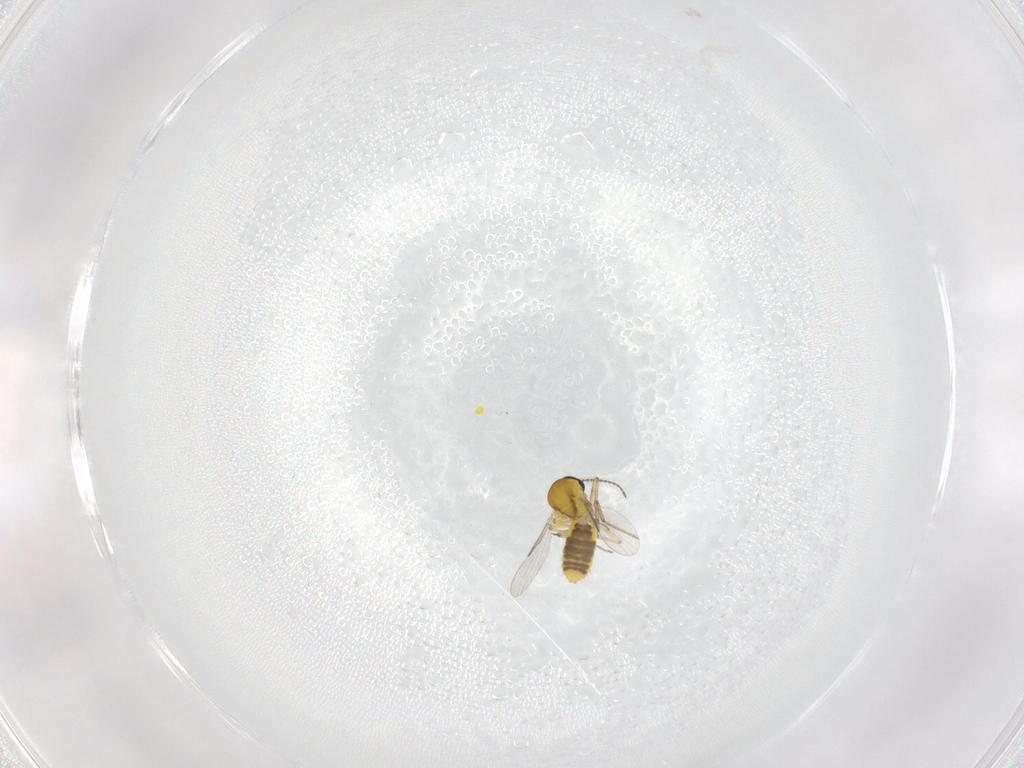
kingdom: Animalia
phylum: Arthropoda
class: Insecta
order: Diptera
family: Ceratopogonidae
